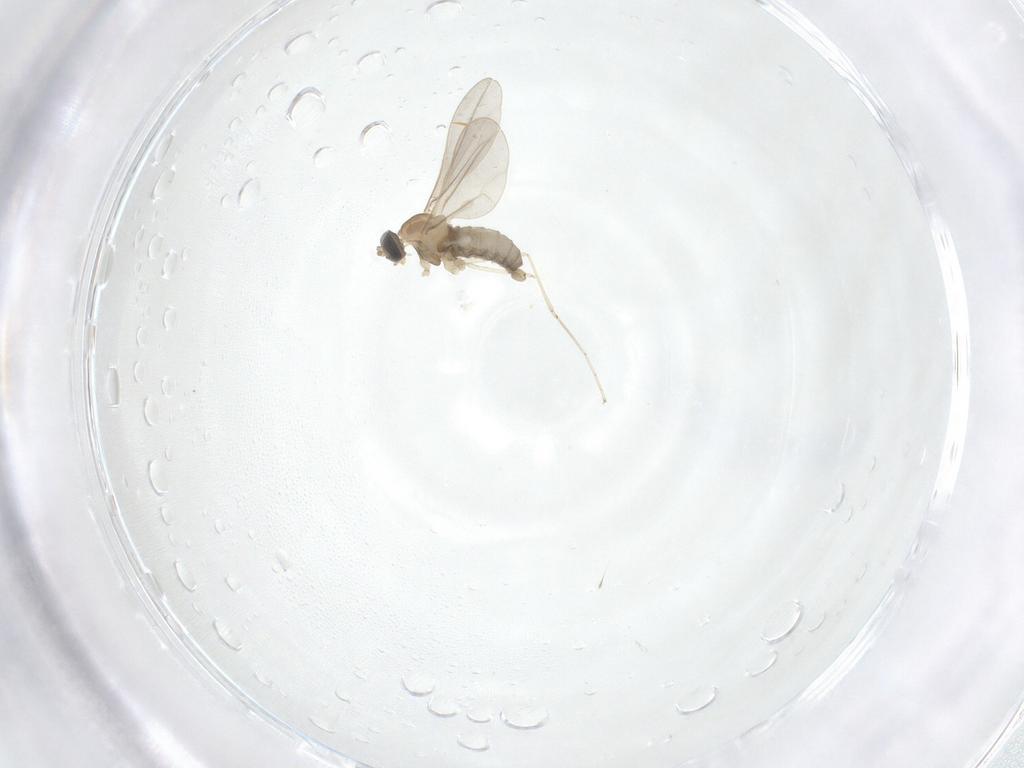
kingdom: Animalia
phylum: Arthropoda
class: Insecta
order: Diptera
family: Cecidomyiidae
